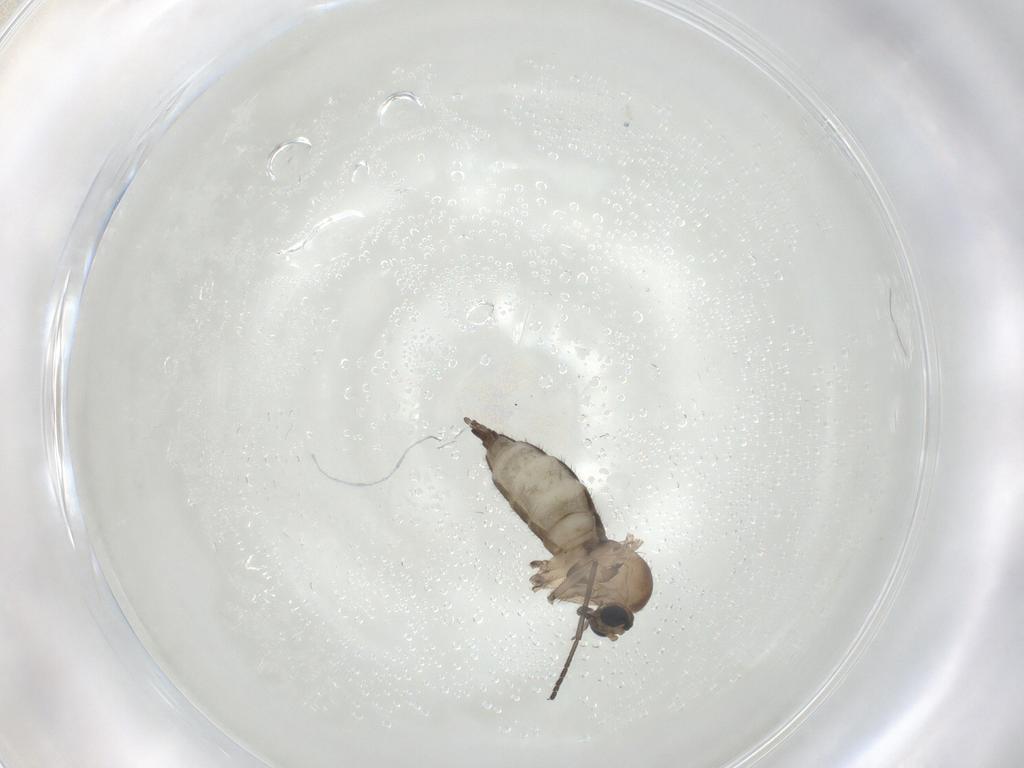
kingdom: Animalia
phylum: Arthropoda
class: Insecta
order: Diptera
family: Sciaridae
